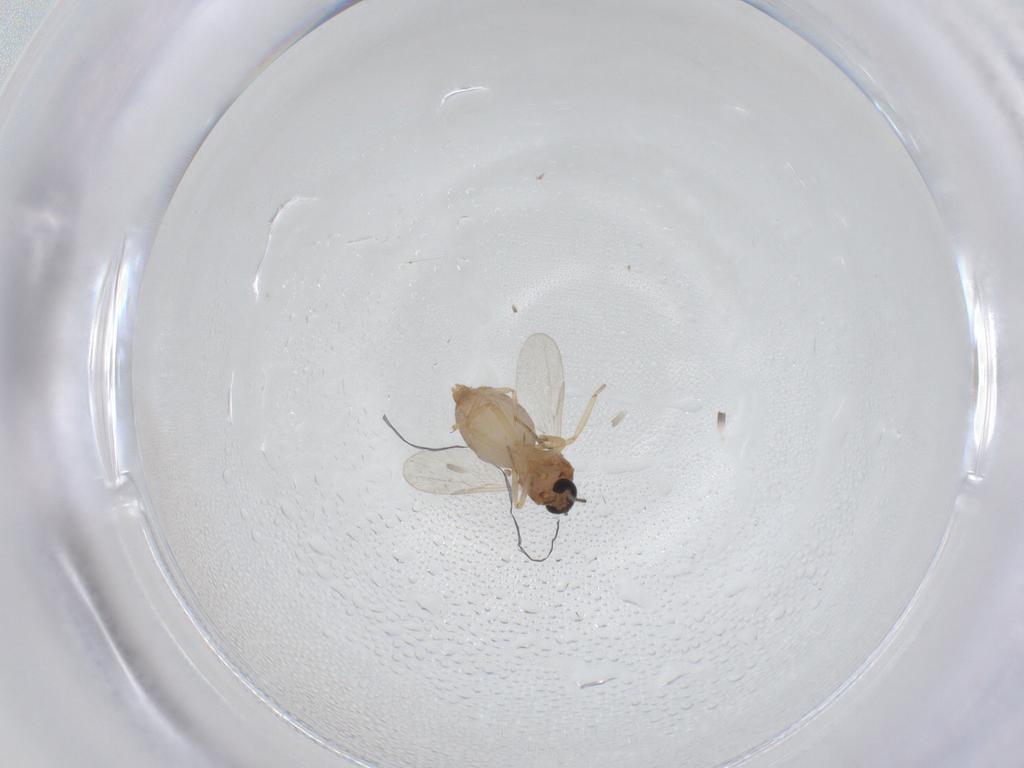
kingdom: Animalia
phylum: Arthropoda
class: Insecta
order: Diptera
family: Ceratopogonidae
